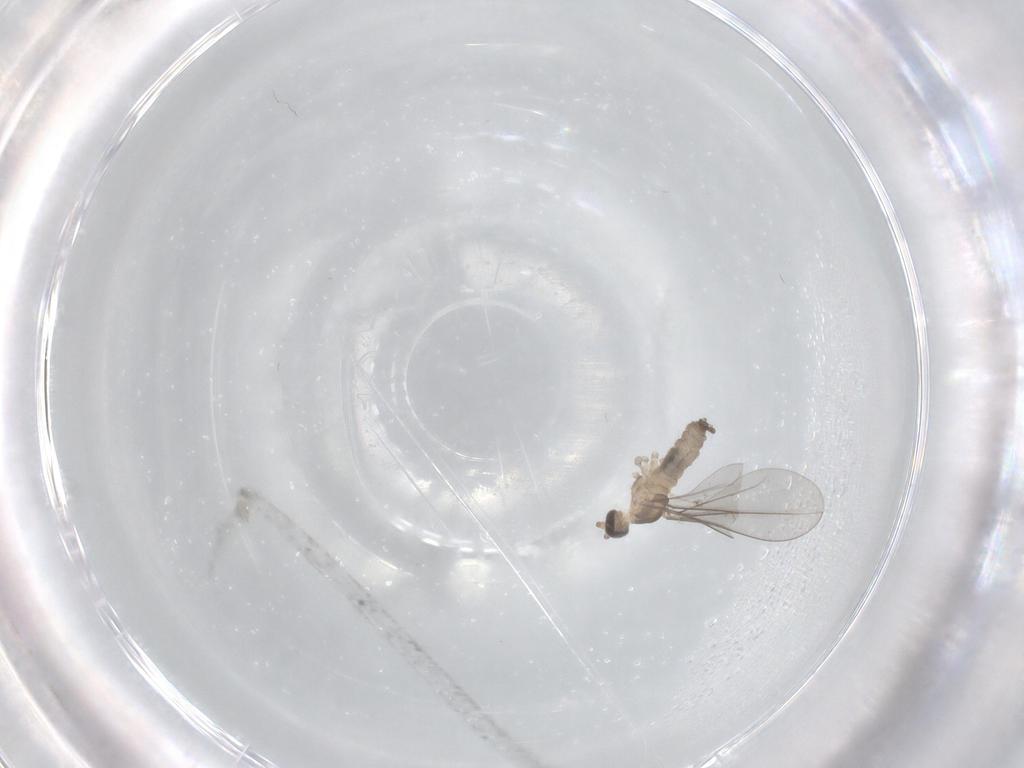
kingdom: Animalia
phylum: Arthropoda
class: Insecta
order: Diptera
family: Cecidomyiidae
